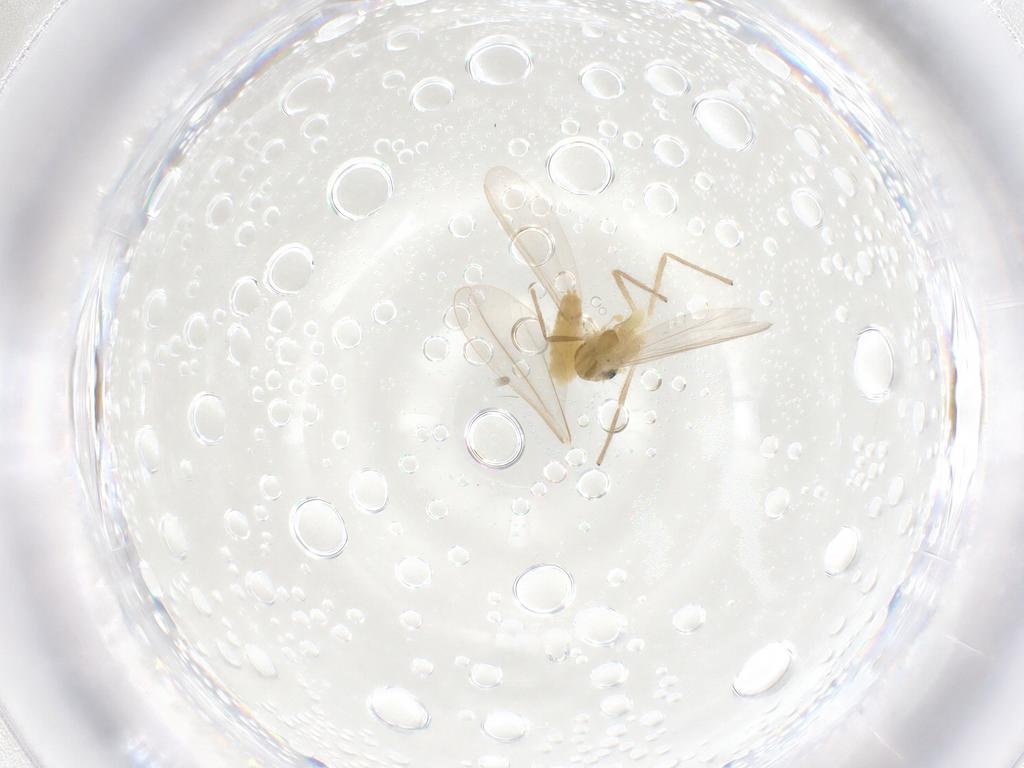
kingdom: Animalia
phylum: Arthropoda
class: Insecta
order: Diptera
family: Chironomidae
